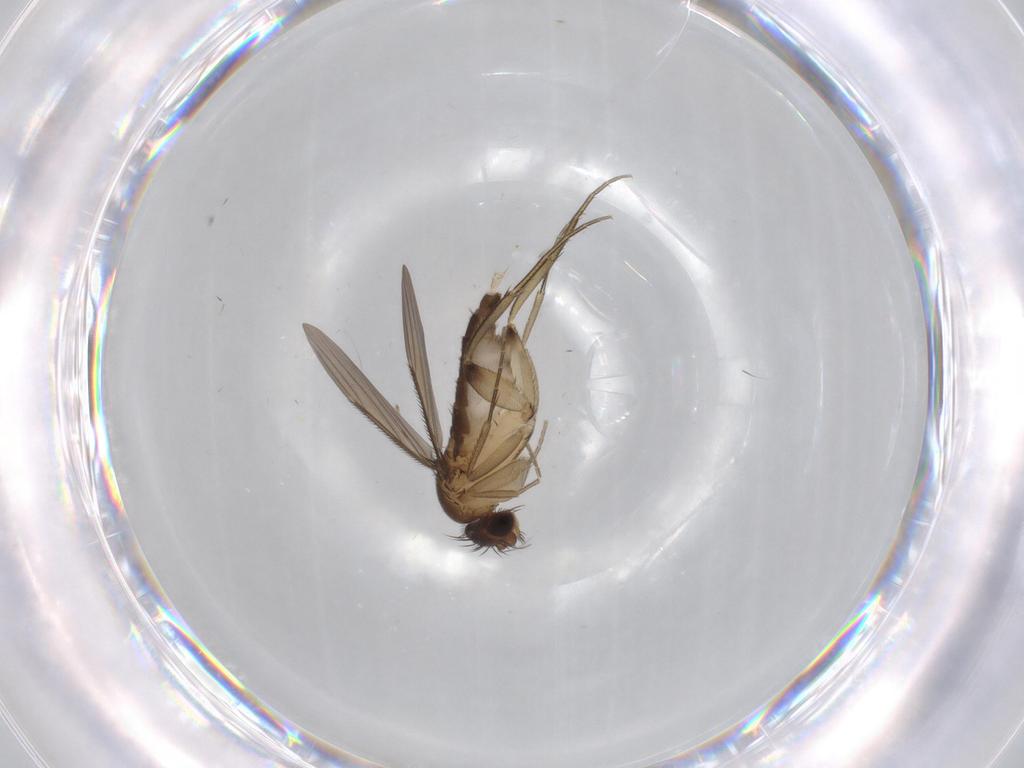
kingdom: Animalia
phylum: Arthropoda
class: Insecta
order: Diptera
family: Phoridae
